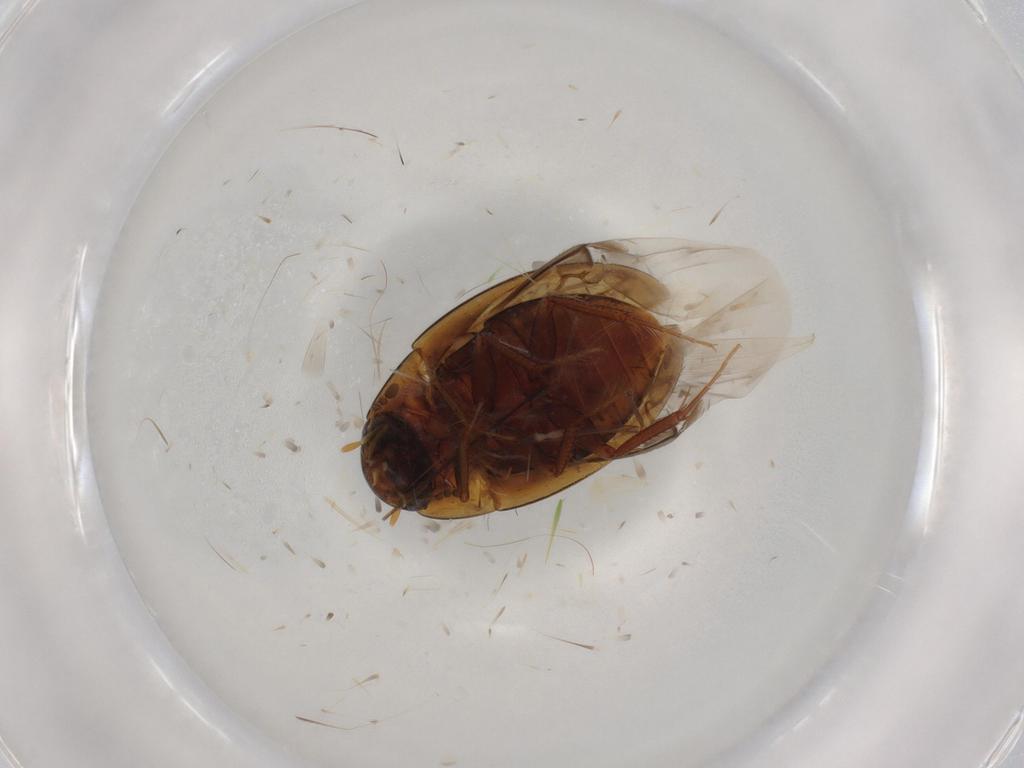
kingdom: Animalia
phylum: Arthropoda
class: Insecta
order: Coleoptera
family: Hydrophilidae
